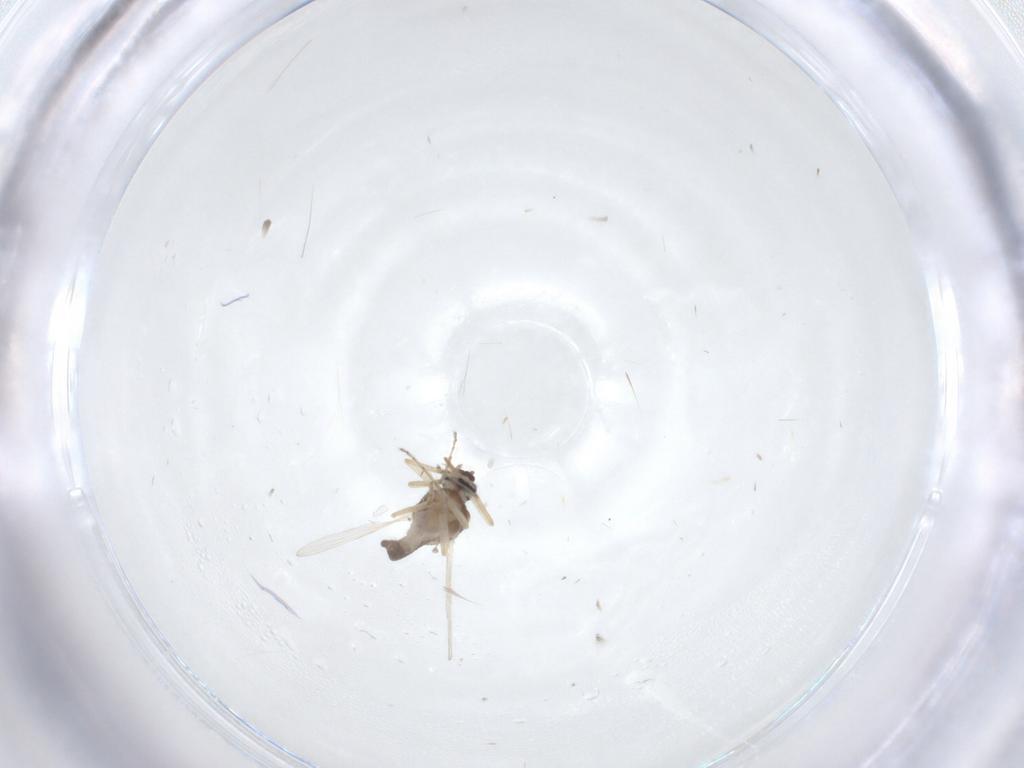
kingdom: Animalia
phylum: Arthropoda
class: Insecta
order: Diptera
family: Ceratopogonidae
